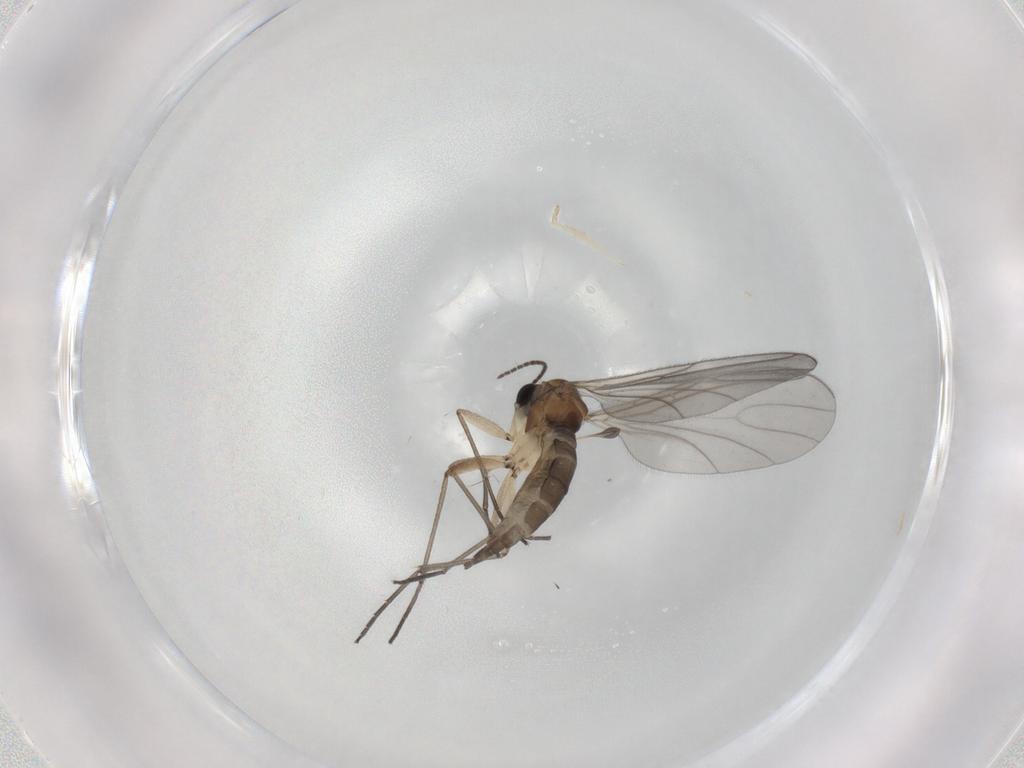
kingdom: Animalia
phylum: Arthropoda
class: Insecta
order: Diptera
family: Sciaridae
